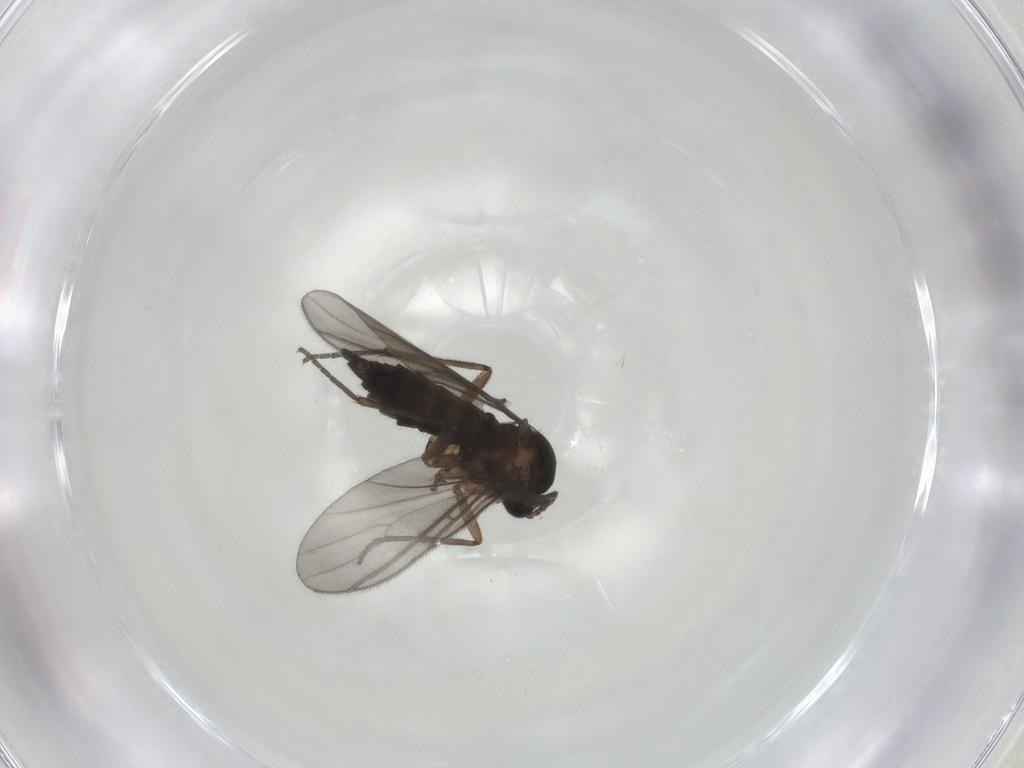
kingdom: Animalia
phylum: Arthropoda
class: Insecta
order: Diptera
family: Sciaridae
